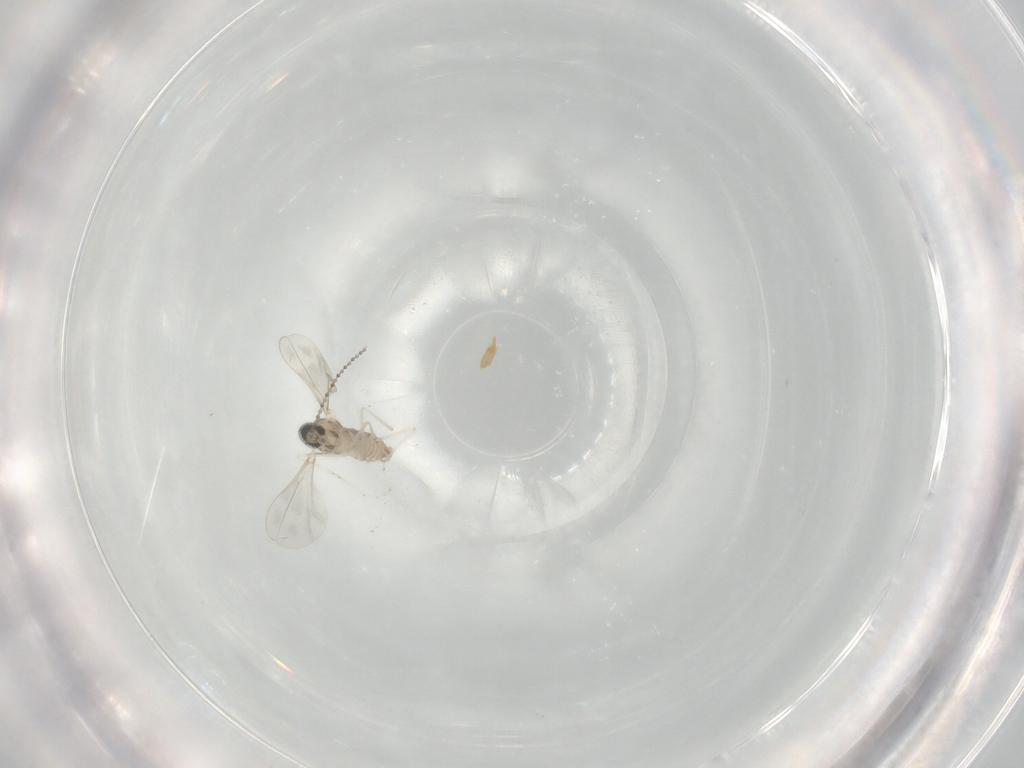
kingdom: Animalia
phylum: Arthropoda
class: Insecta
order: Diptera
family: Cecidomyiidae
